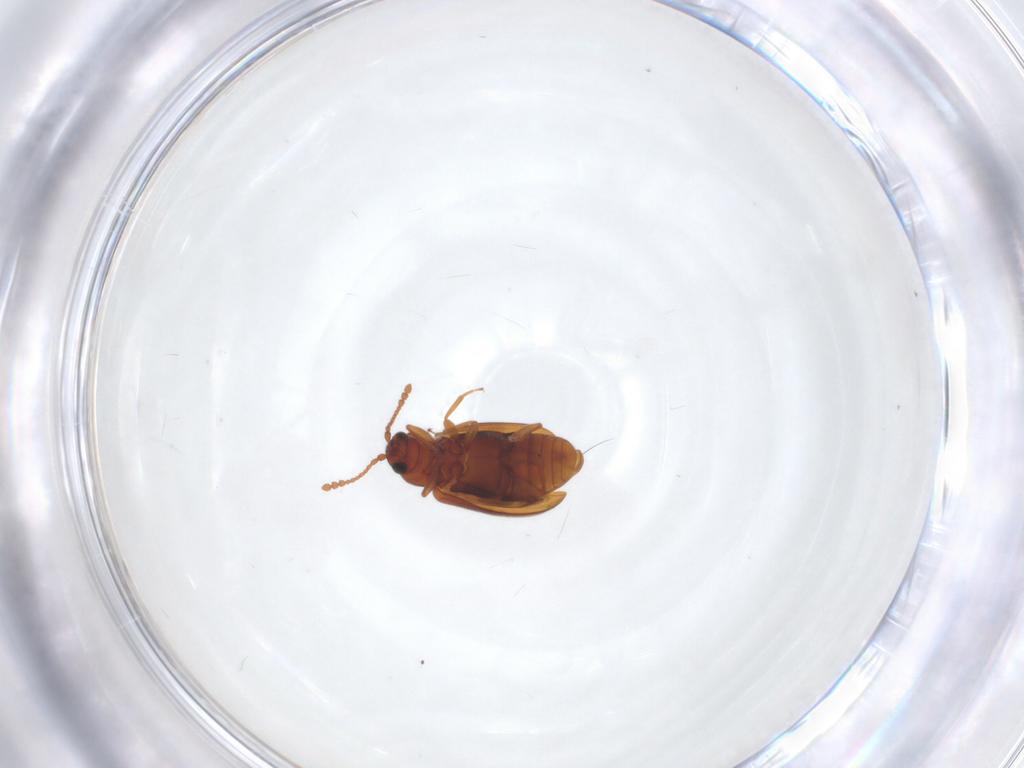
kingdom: Animalia
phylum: Arthropoda
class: Insecta
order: Coleoptera
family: Cryptophagidae
